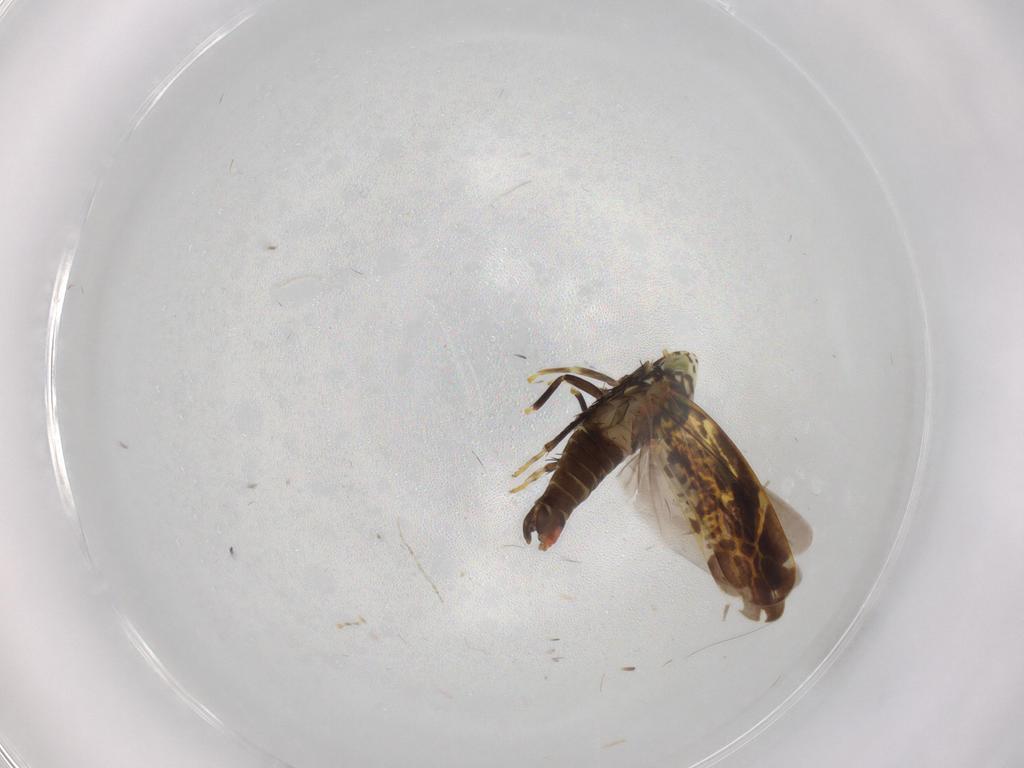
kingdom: Animalia
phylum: Arthropoda
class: Insecta
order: Hemiptera
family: Cicadellidae
